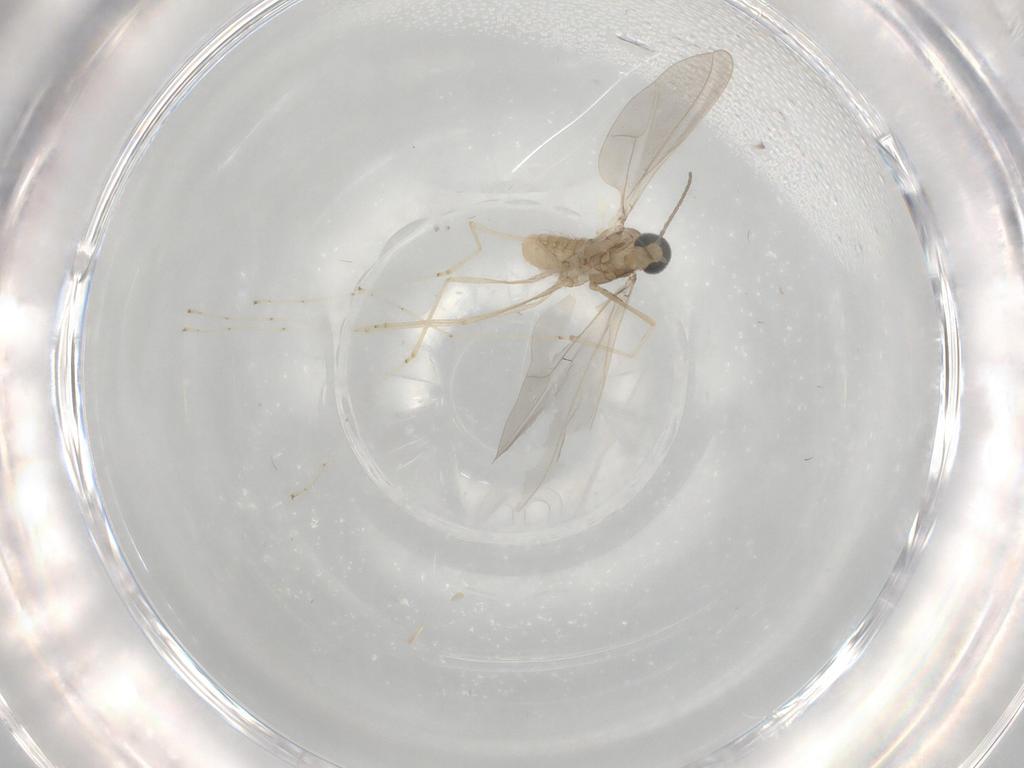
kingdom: Animalia
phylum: Arthropoda
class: Insecta
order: Diptera
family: Cecidomyiidae
